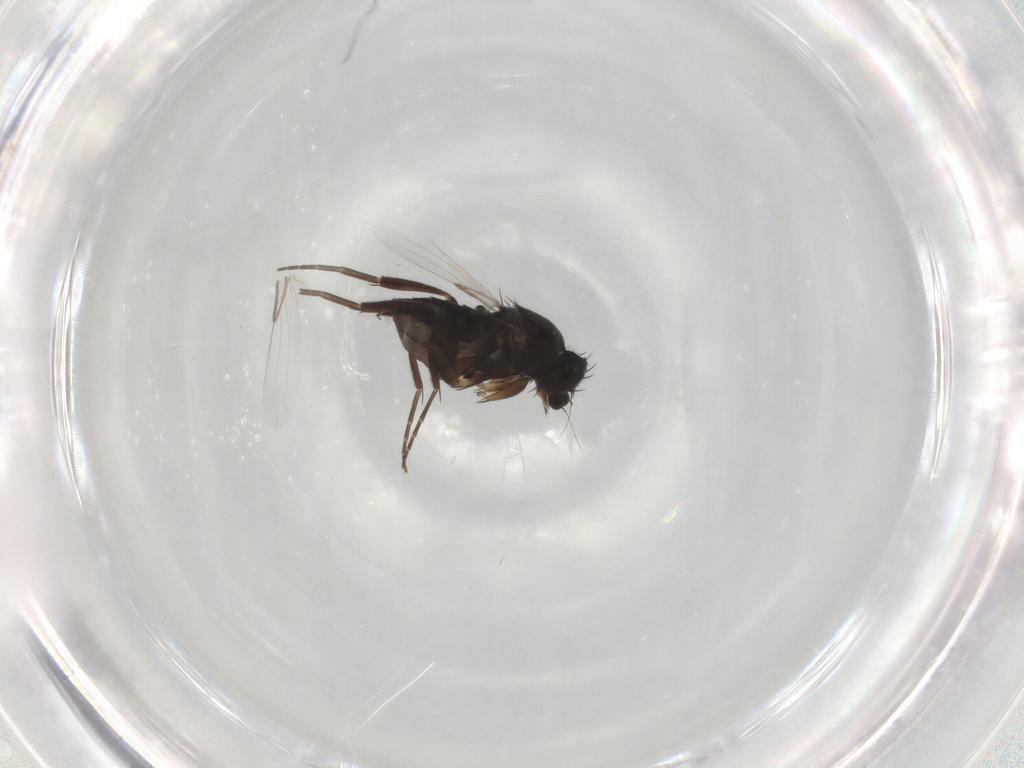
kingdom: Animalia
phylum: Arthropoda
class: Insecta
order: Diptera
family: Phoridae
